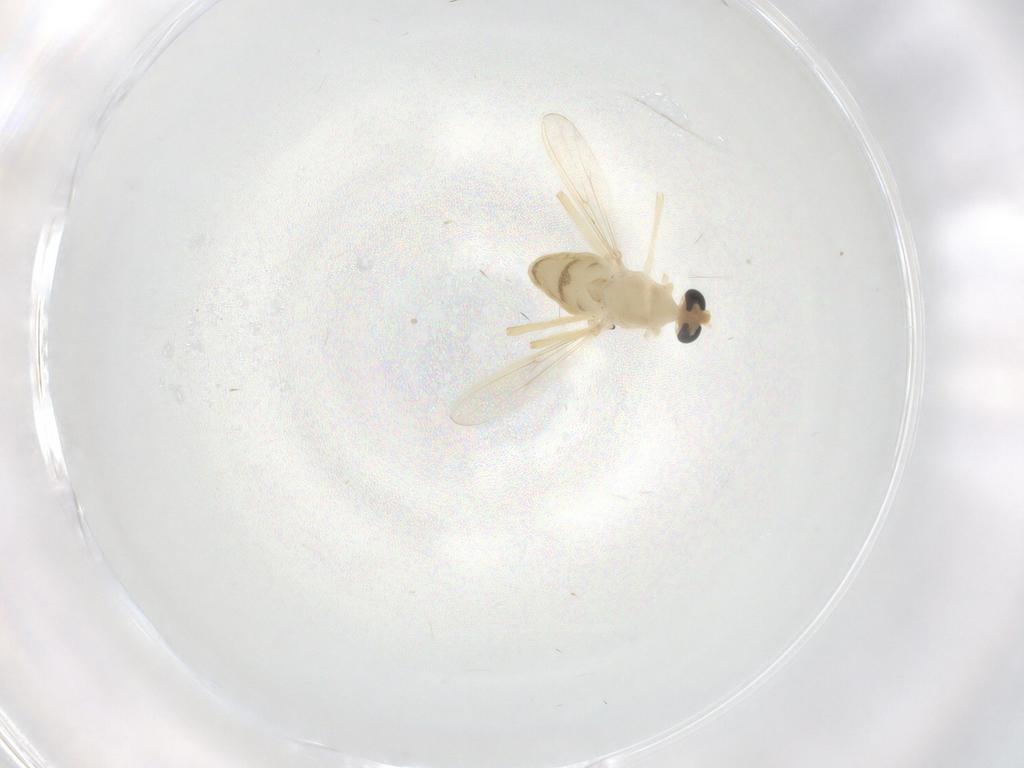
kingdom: Animalia
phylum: Arthropoda
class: Insecta
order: Diptera
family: Chironomidae
